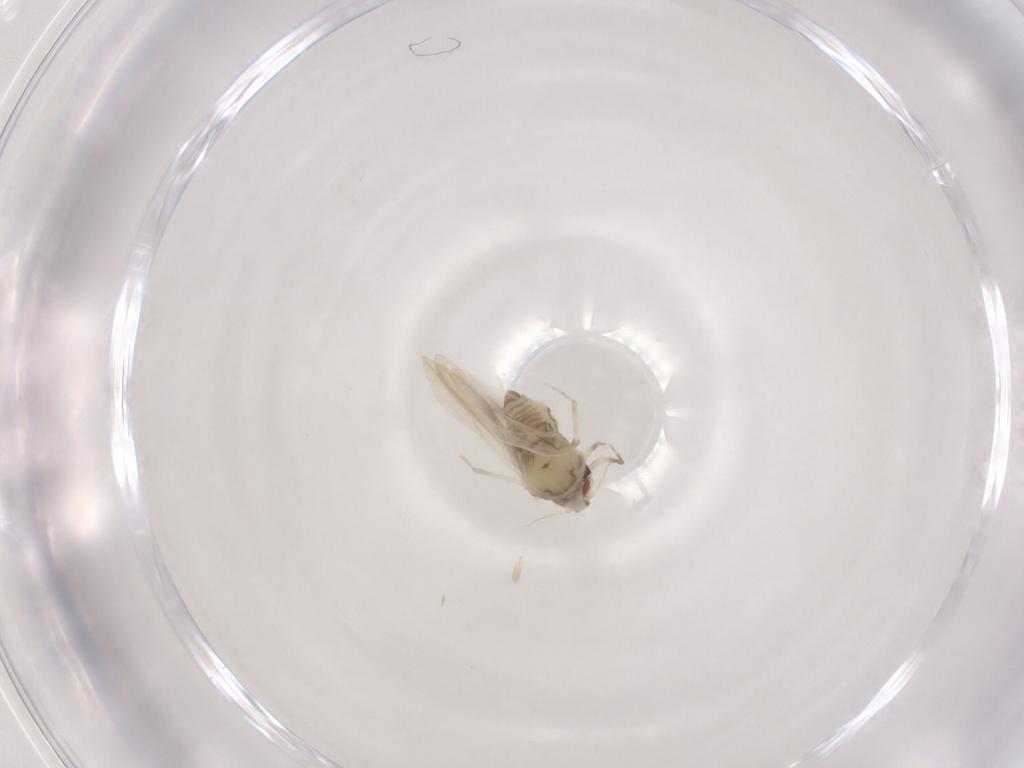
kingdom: Animalia
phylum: Arthropoda
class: Insecta
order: Hemiptera
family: Aleyrodidae
